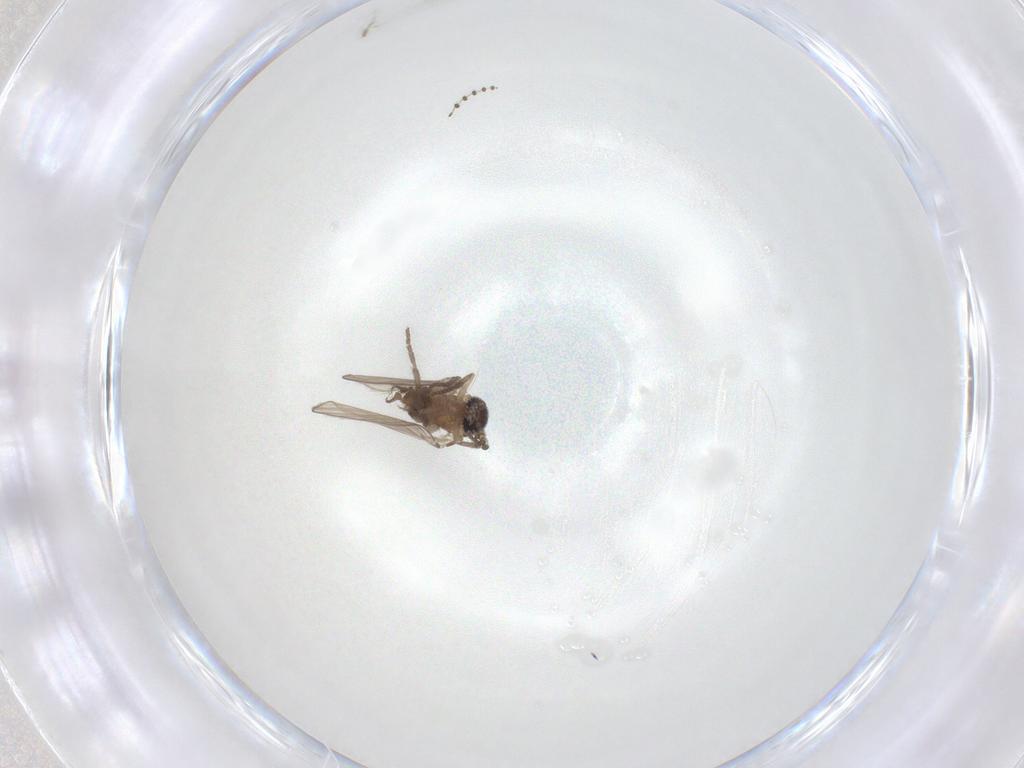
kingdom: Animalia
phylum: Arthropoda
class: Insecta
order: Diptera
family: Psychodidae
